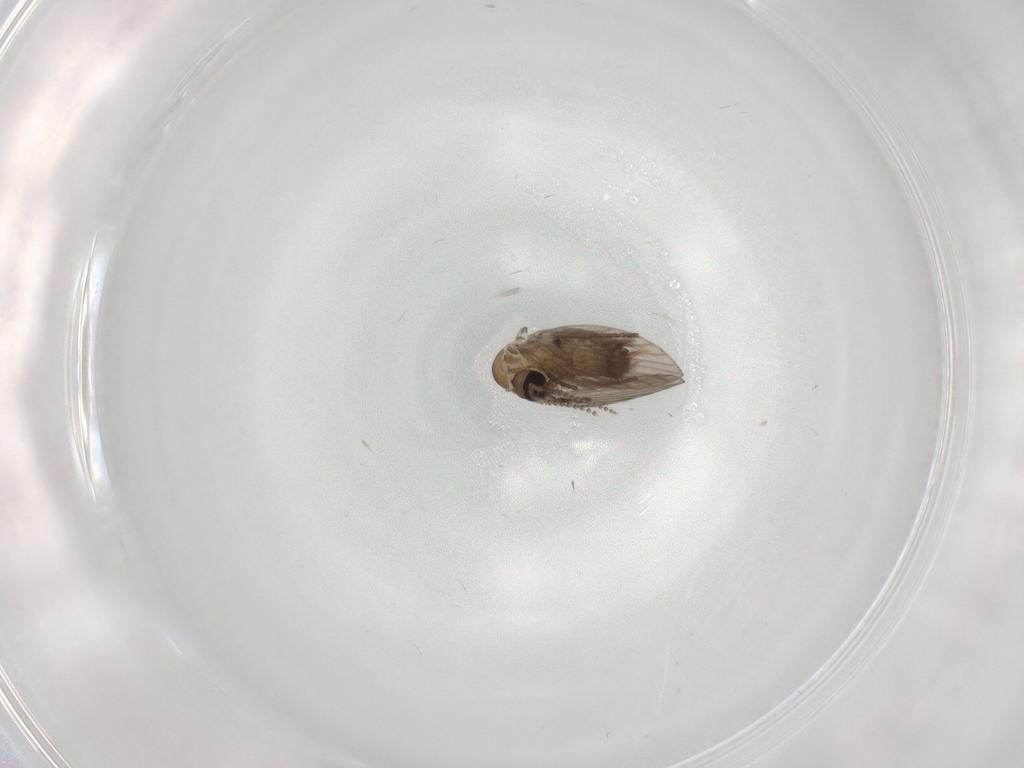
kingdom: Animalia
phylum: Arthropoda
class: Insecta
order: Diptera
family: Psychodidae
